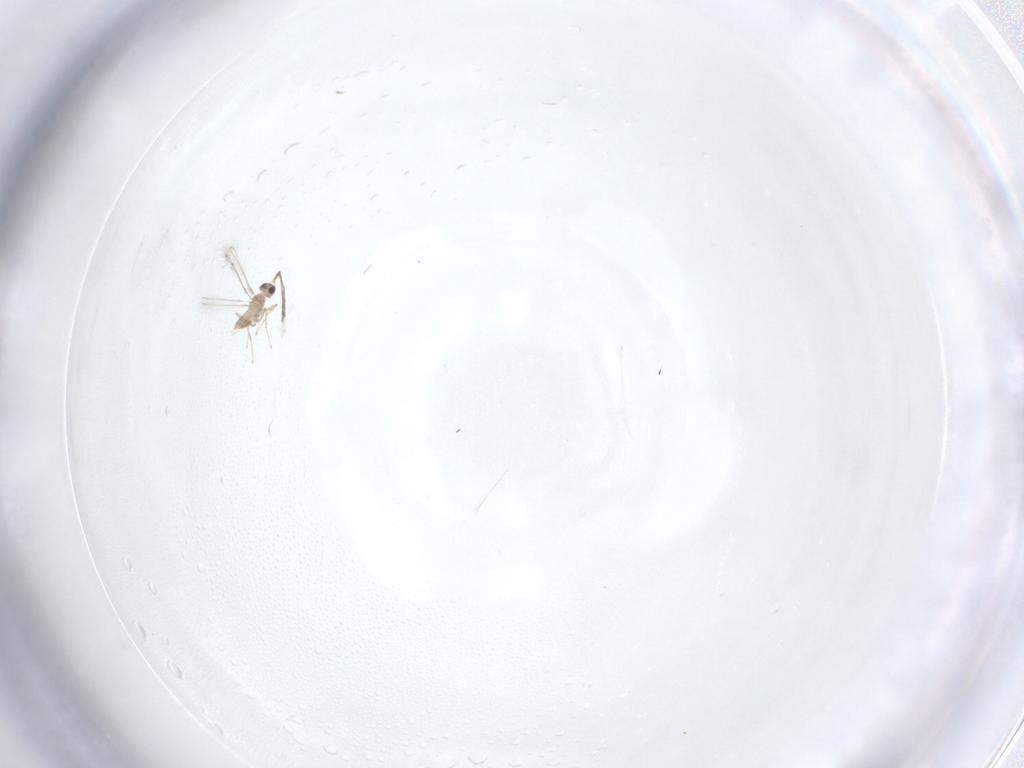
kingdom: Animalia
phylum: Arthropoda
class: Insecta
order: Hymenoptera
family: Mymaridae
